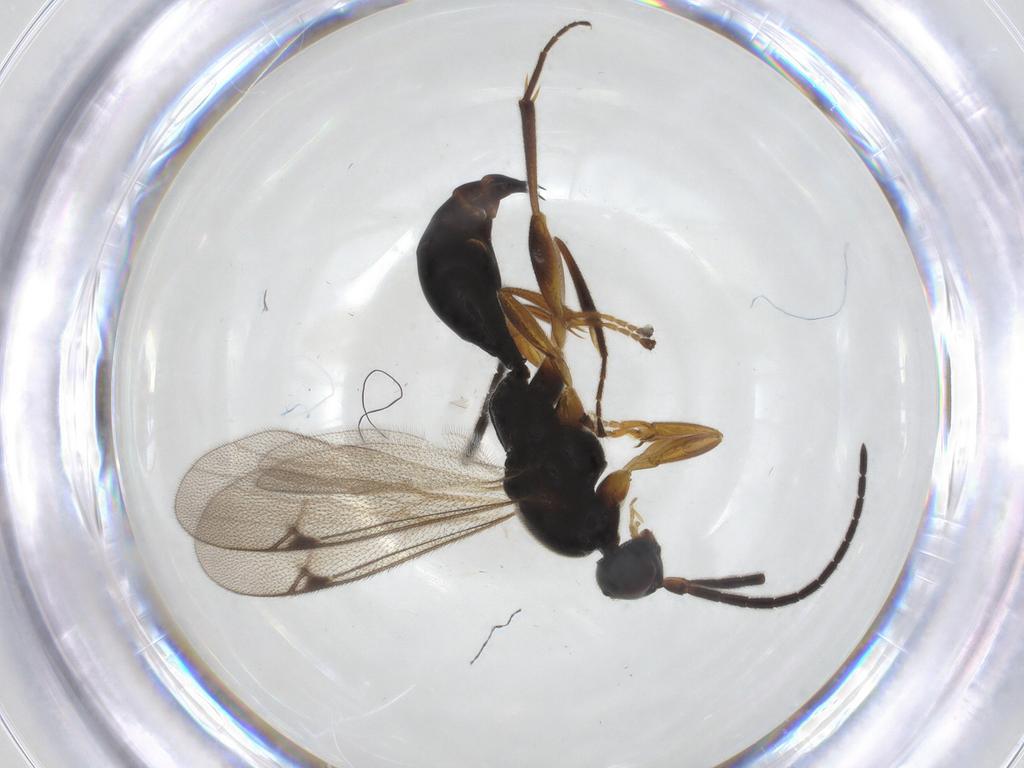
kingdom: Animalia
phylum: Arthropoda
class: Insecta
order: Hymenoptera
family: Proctotrupidae
